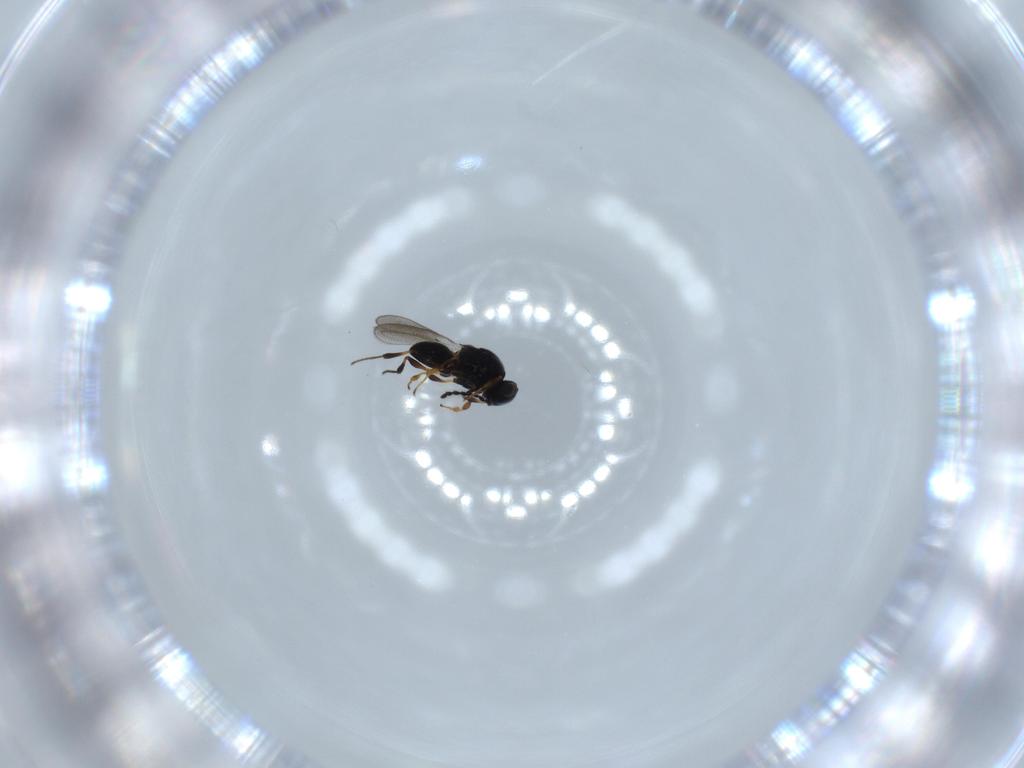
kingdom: Animalia
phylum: Arthropoda
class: Insecta
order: Hymenoptera
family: Platygastridae
